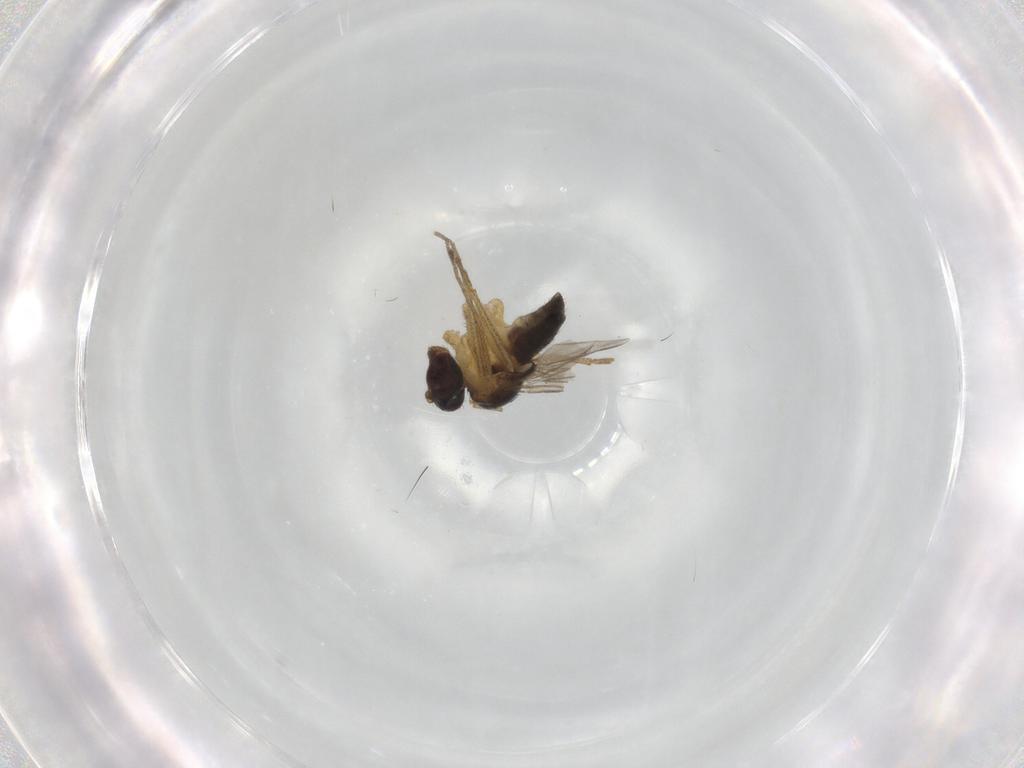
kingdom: Animalia
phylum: Arthropoda
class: Insecta
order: Diptera
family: Dolichopodidae
